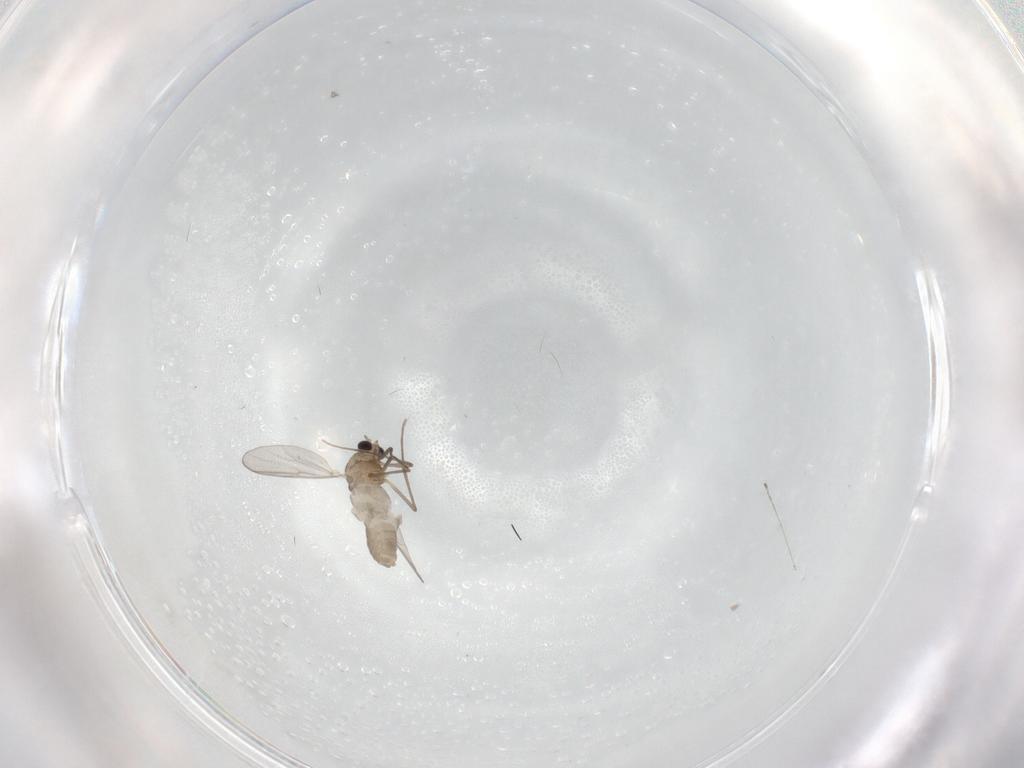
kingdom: Animalia
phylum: Arthropoda
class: Insecta
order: Diptera
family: Chironomidae
